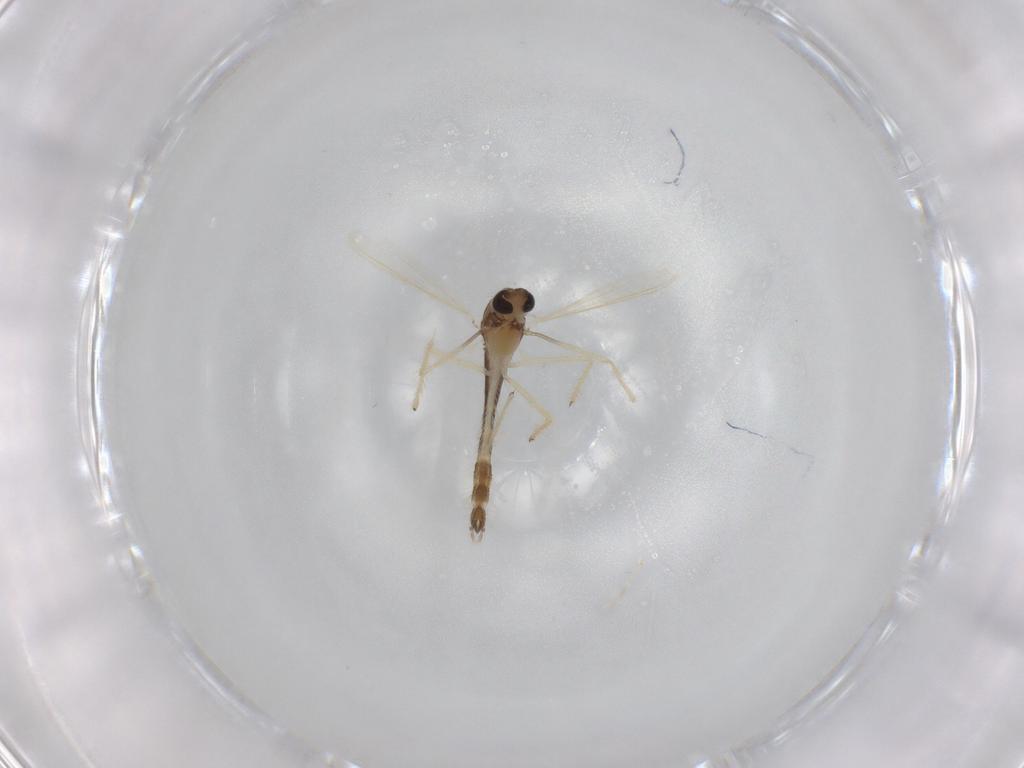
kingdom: Animalia
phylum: Arthropoda
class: Insecta
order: Diptera
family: Chironomidae
